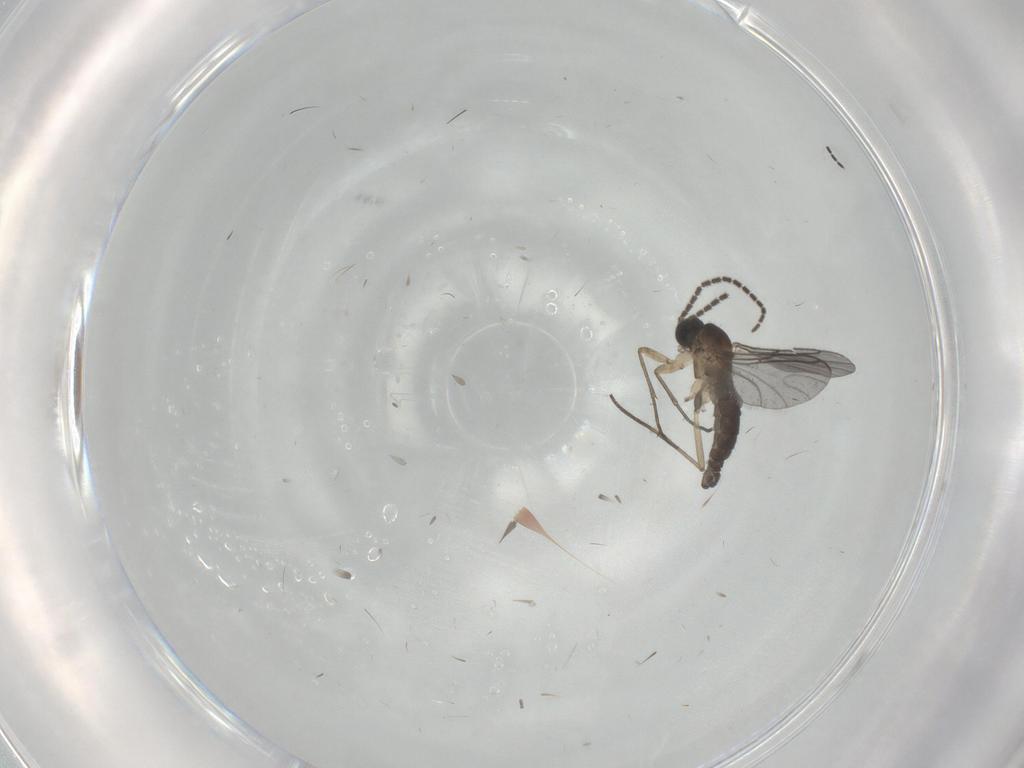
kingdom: Animalia
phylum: Arthropoda
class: Insecta
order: Diptera
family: Sciaridae
